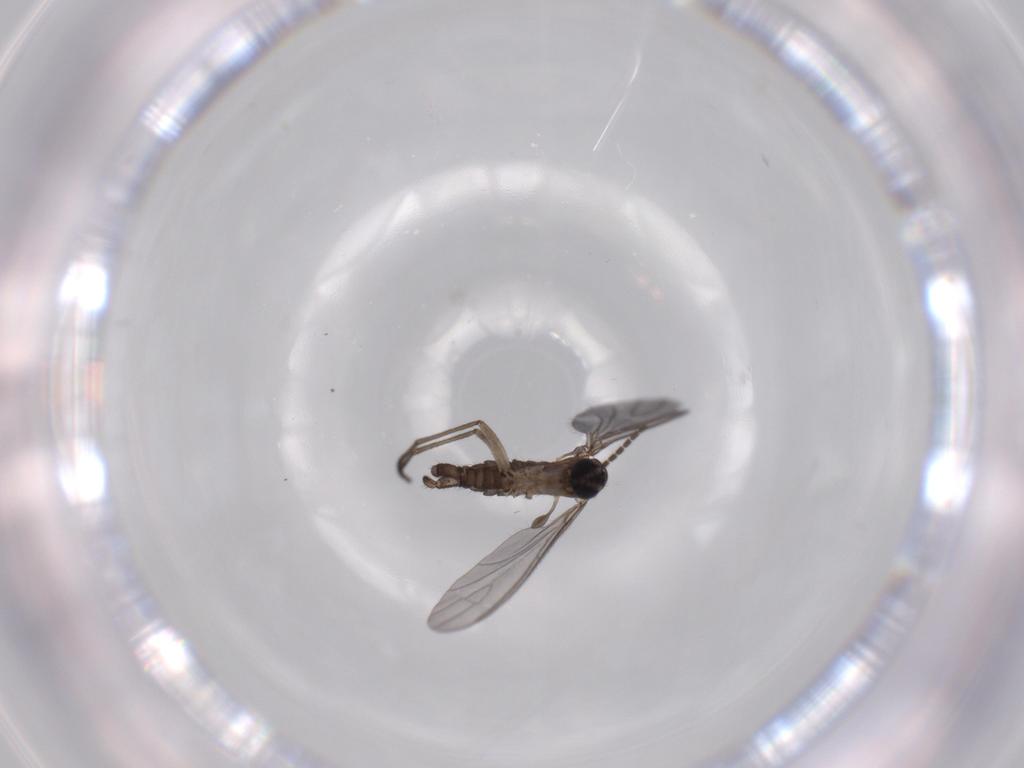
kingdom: Animalia
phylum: Arthropoda
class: Insecta
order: Diptera
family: Sciaridae
